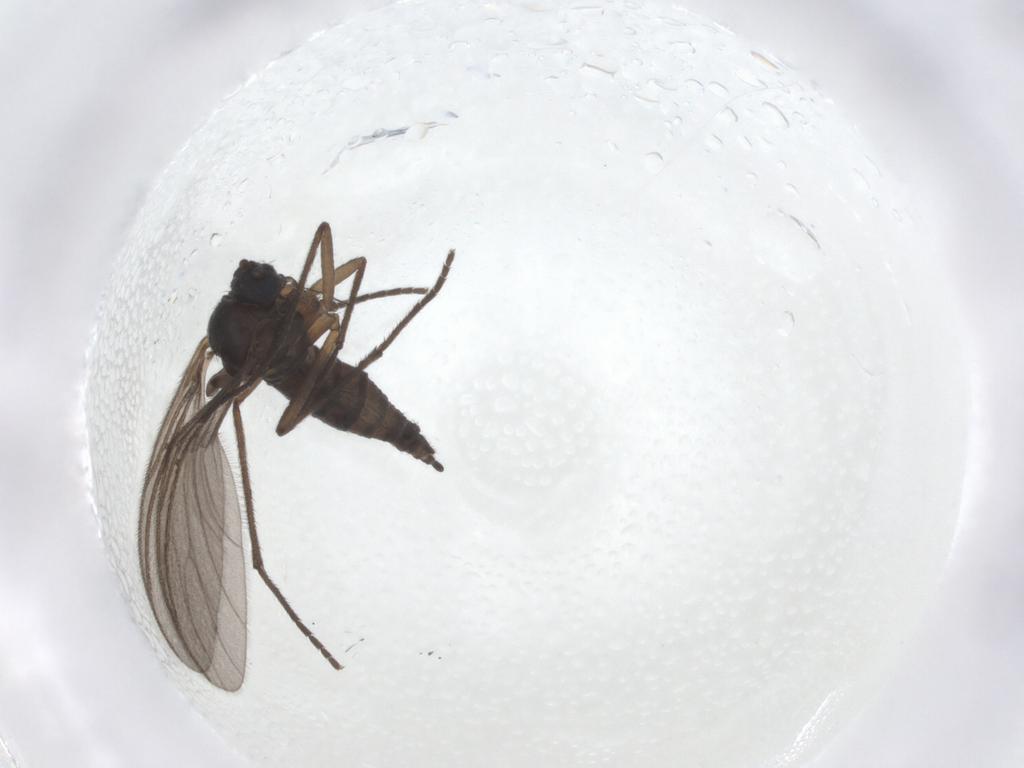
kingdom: Animalia
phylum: Arthropoda
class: Insecta
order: Diptera
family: Sciaridae
